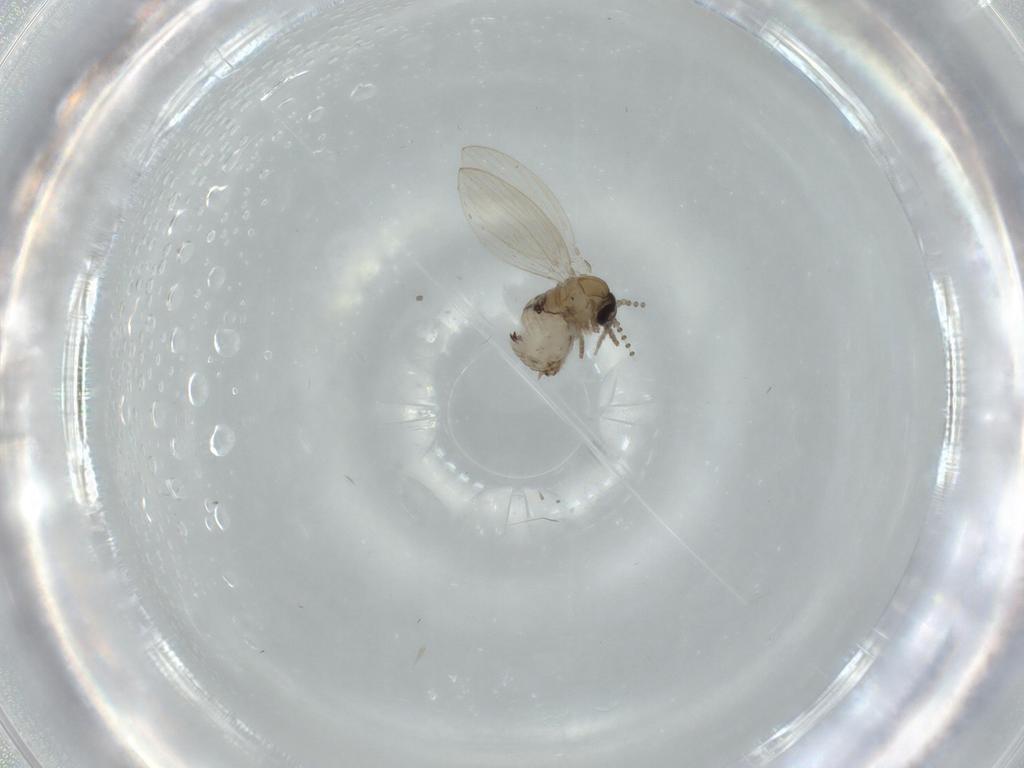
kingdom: Animalia
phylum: Arthropoda
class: Insecta
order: Diptera
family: Psychodidae
